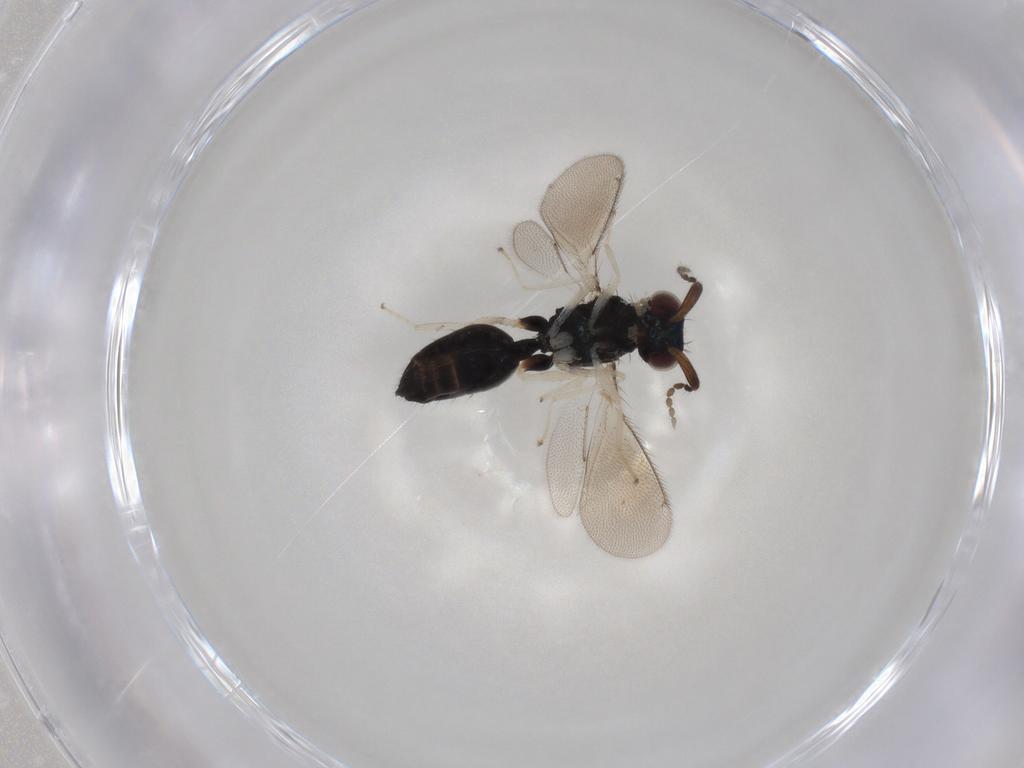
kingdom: Animalia
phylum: Arthropoda
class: Insecta
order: Hymenoptera
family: Eulophidae
